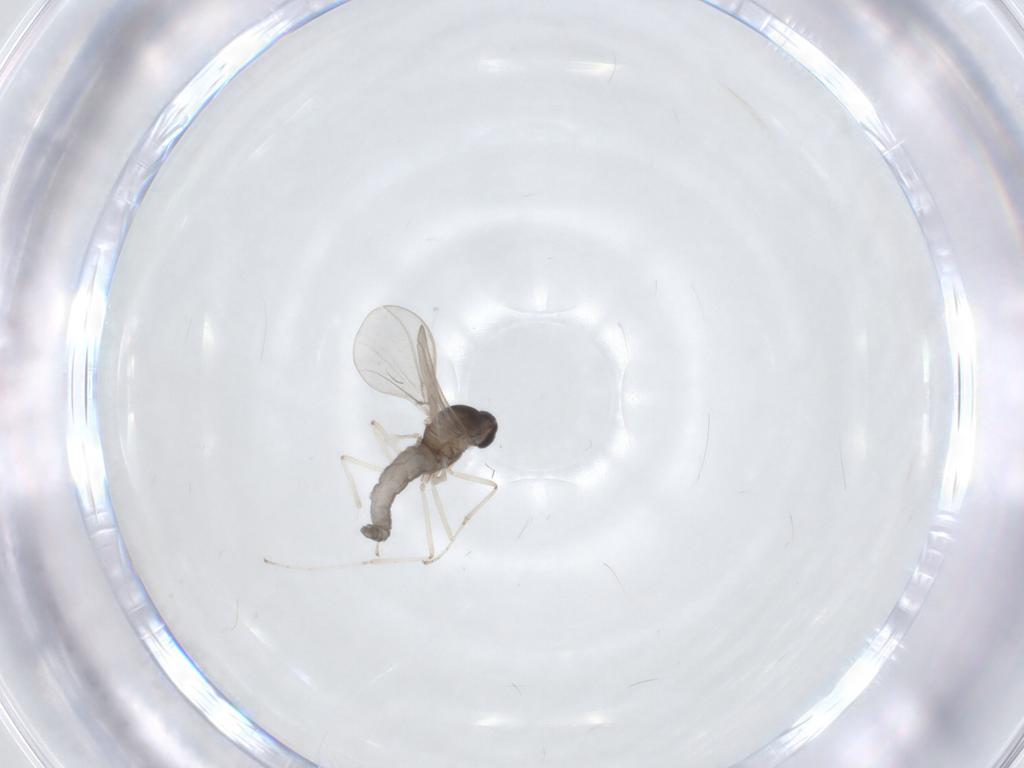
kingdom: Animalia
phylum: Arthropoda
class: Insecta
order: Diptera
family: Cecidomyiidae
